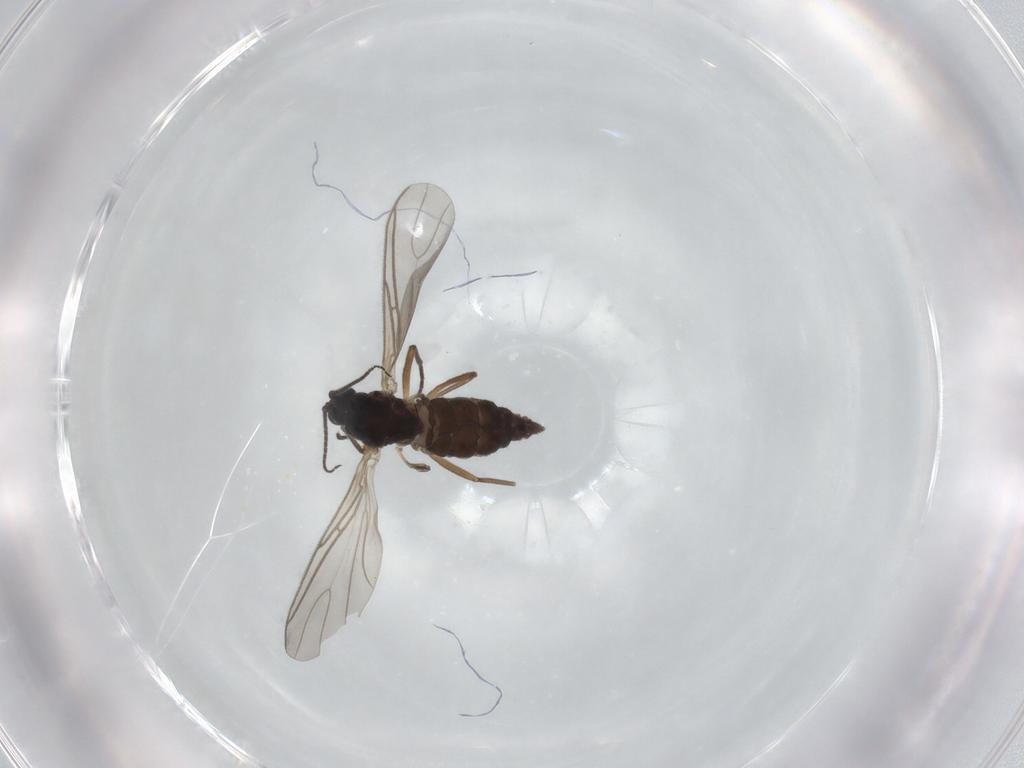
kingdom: Animalia
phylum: Arthropoda
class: Insecta
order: Diptera
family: Sciaridae
